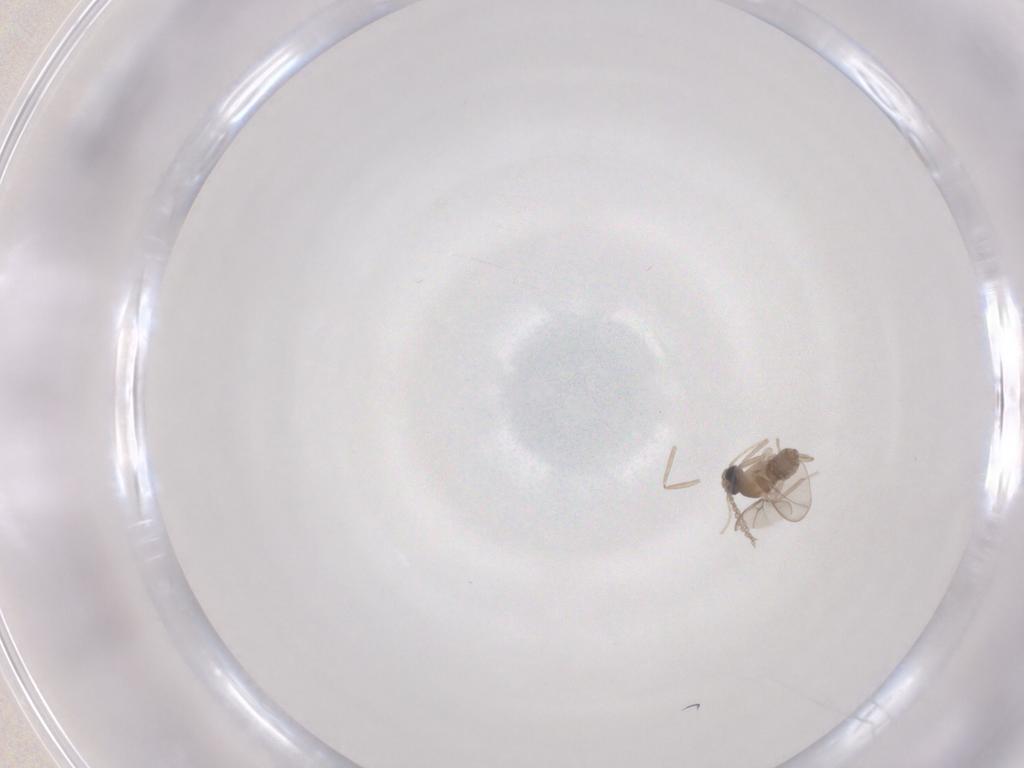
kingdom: Animalia
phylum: Arthropoda
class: Insecta
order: Diptera
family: Cecidomyiidae
